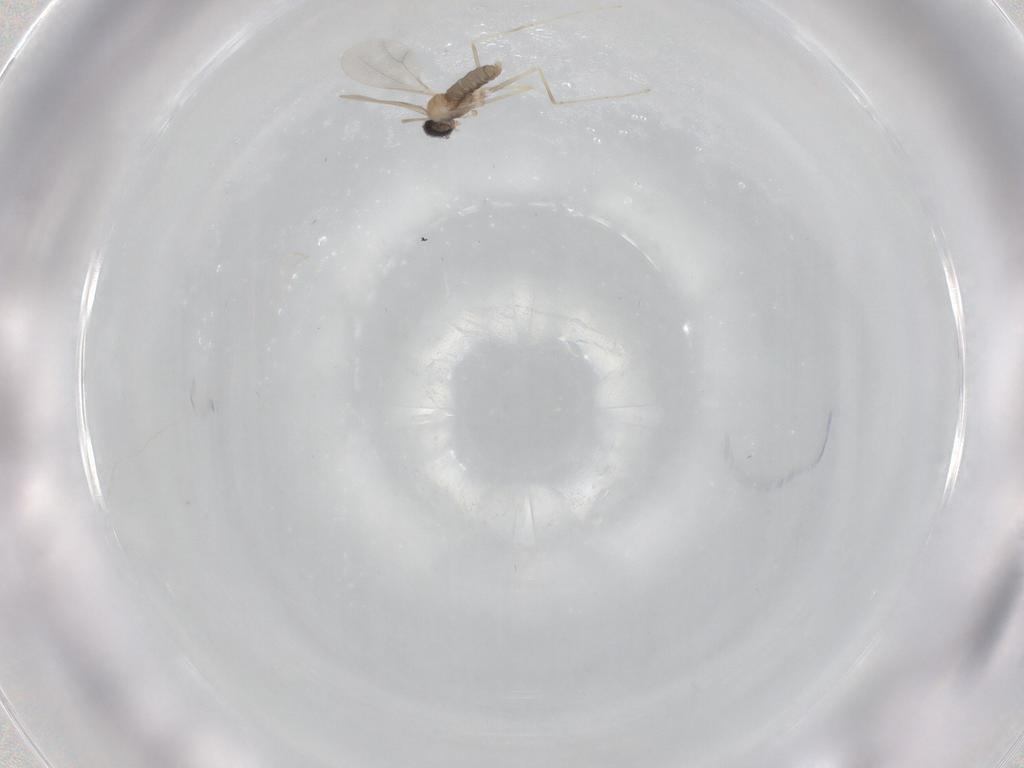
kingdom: Animalia
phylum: Arthropoda
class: Insecta
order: Diptera
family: Cecidomyiidae
